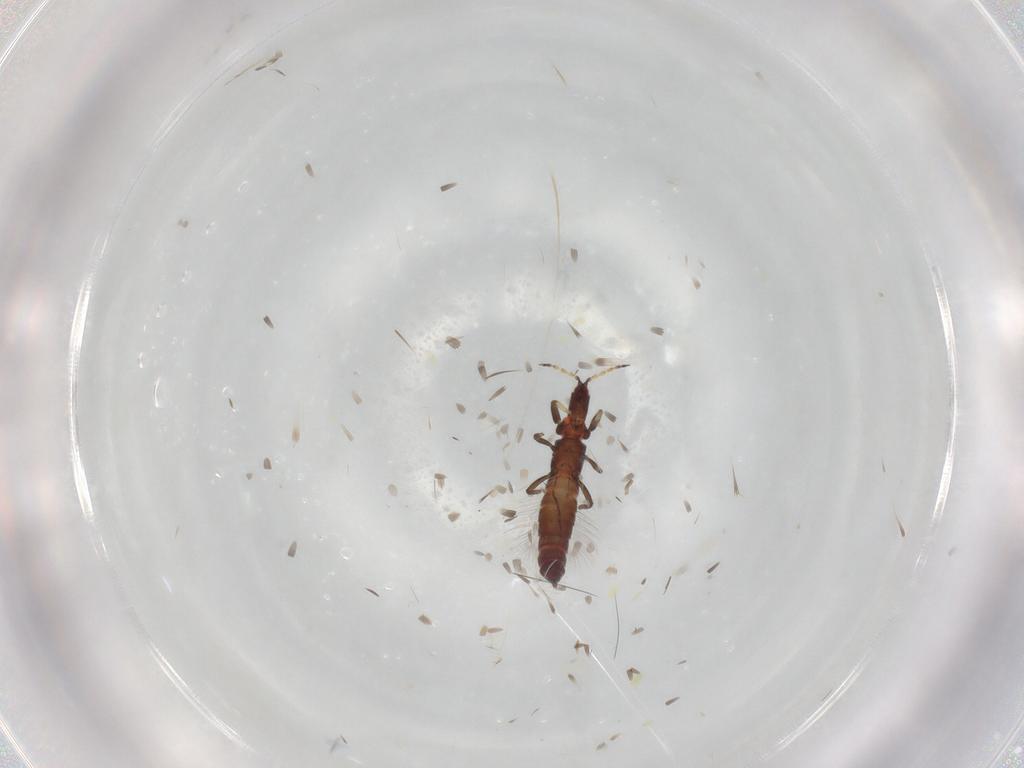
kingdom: Animalia
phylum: Arthropoda
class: Insecta
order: Thysanoptera
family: Phlaeothripidae
